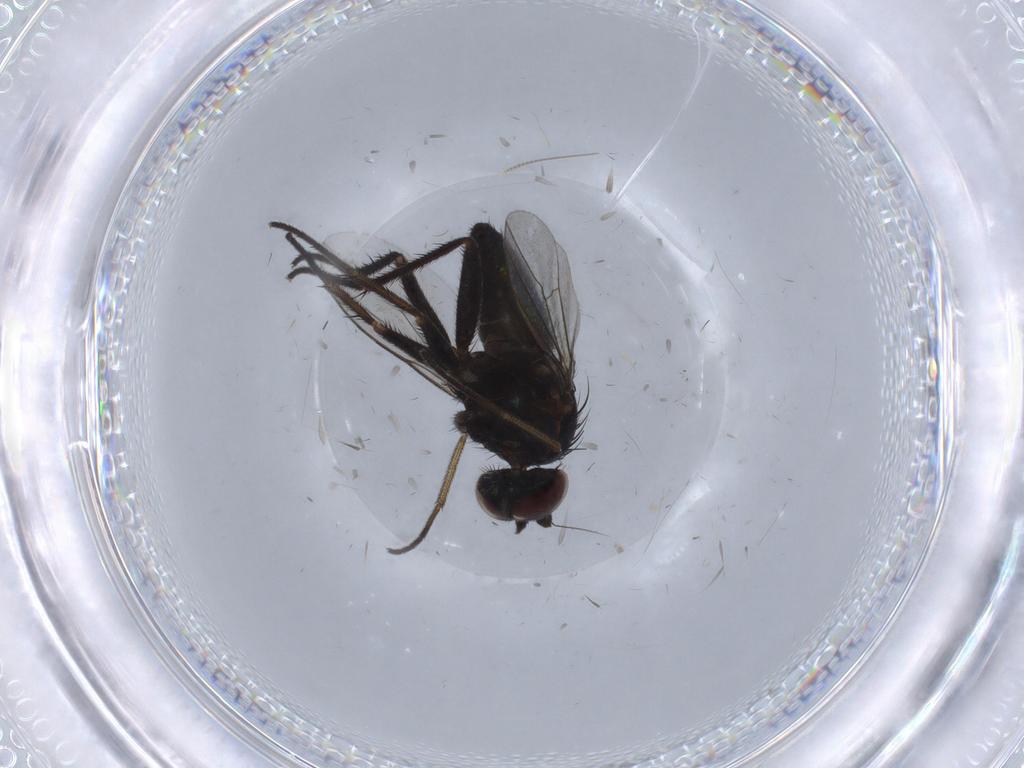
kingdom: Animalia
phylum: Arthropoda
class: Insecta
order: Diptera
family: Dolichopodidae
